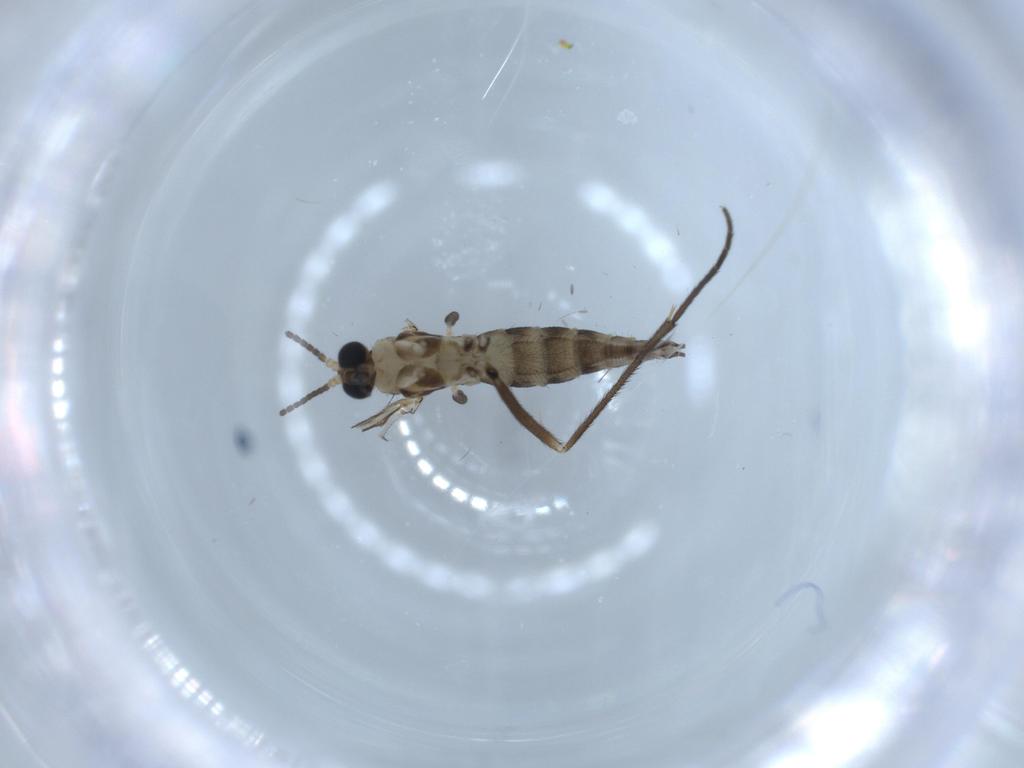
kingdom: Animalia
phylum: Arthropoda
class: Insecta
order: Diptera
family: Sciaridae
